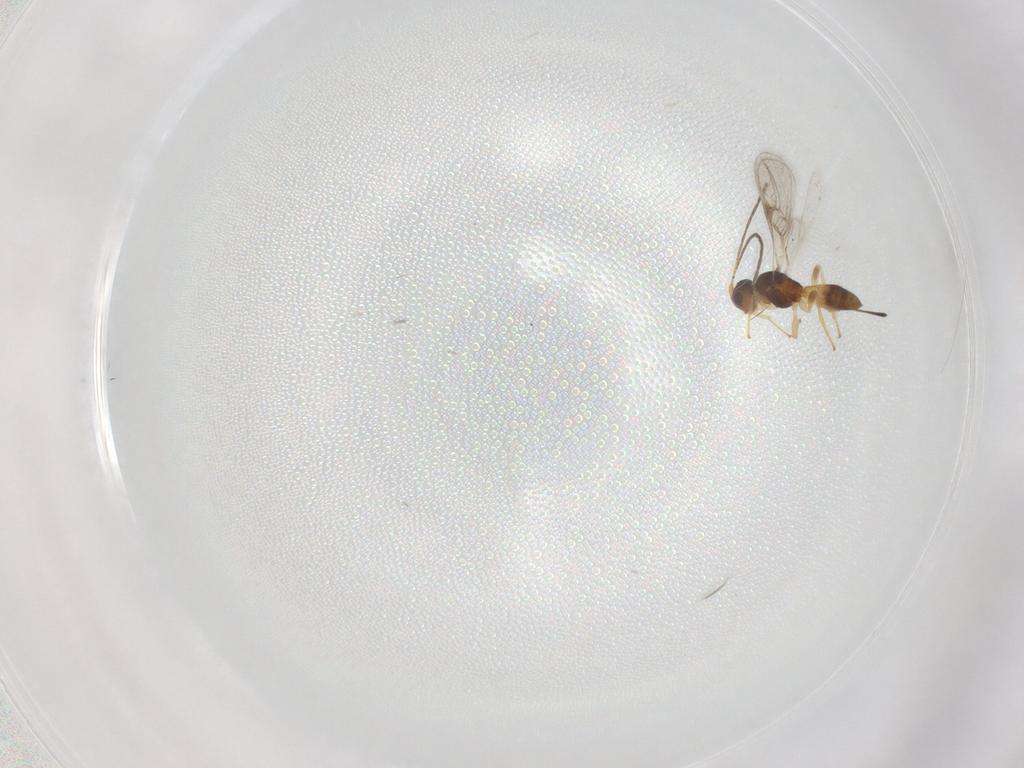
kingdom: Animalia
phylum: Arthropoda
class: Insecta
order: Hymenoptera
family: Braconidae
